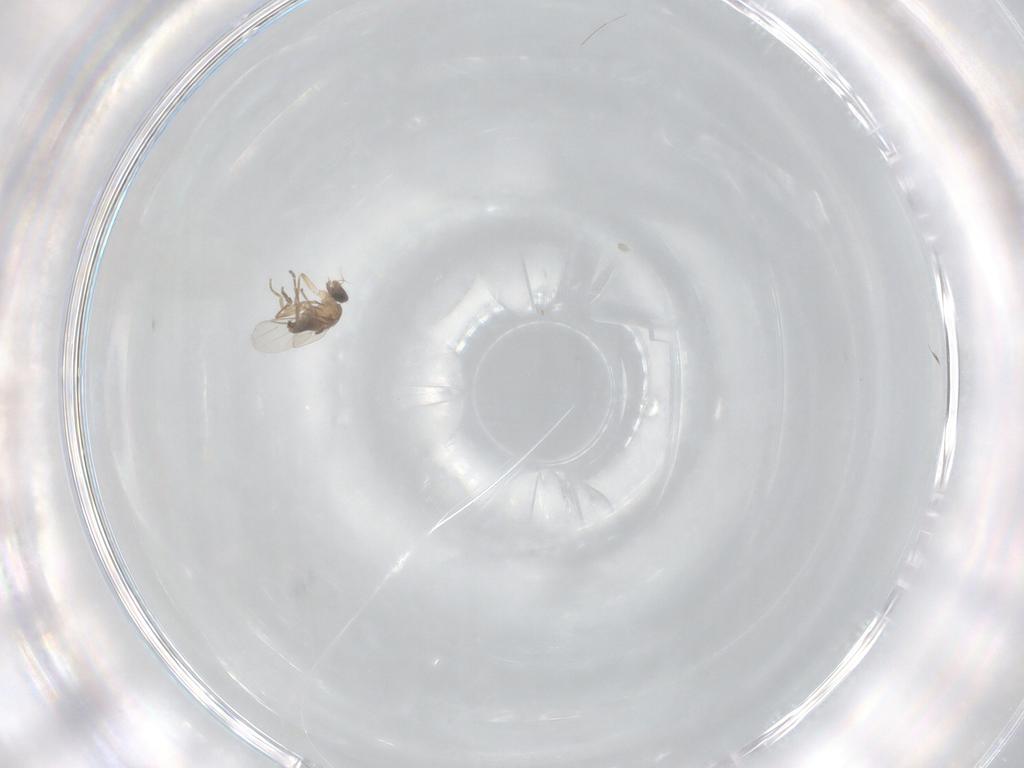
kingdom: Animalia
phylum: Arthropoda
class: Insecta
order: Diptera
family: Phoridae
